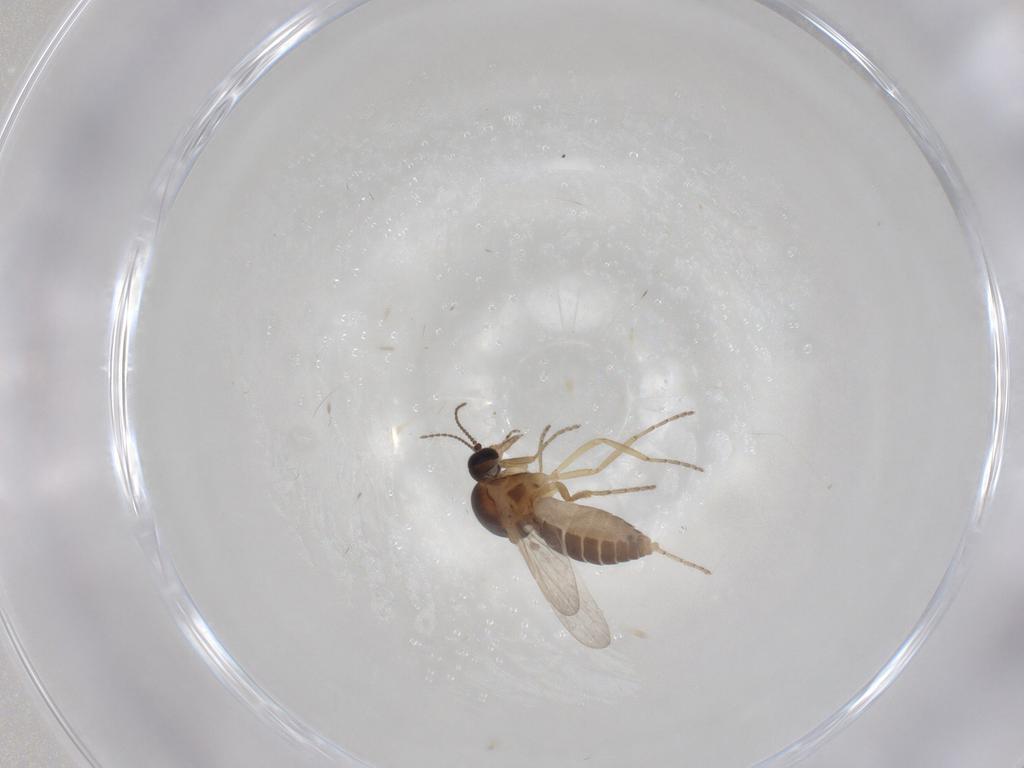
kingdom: Animalia
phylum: Arthropoda
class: Insecta
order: Diptera
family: Ceratopogonidae
